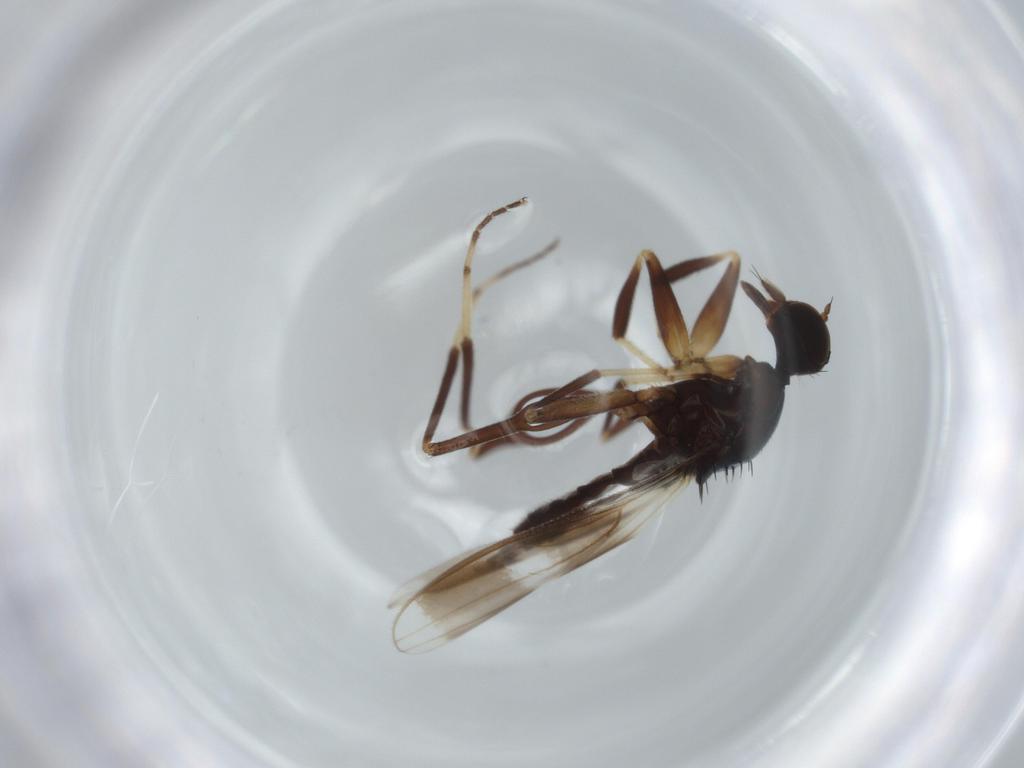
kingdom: Animalia
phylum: Arthropoda
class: Insecta
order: Diptera
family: Hybotidae
